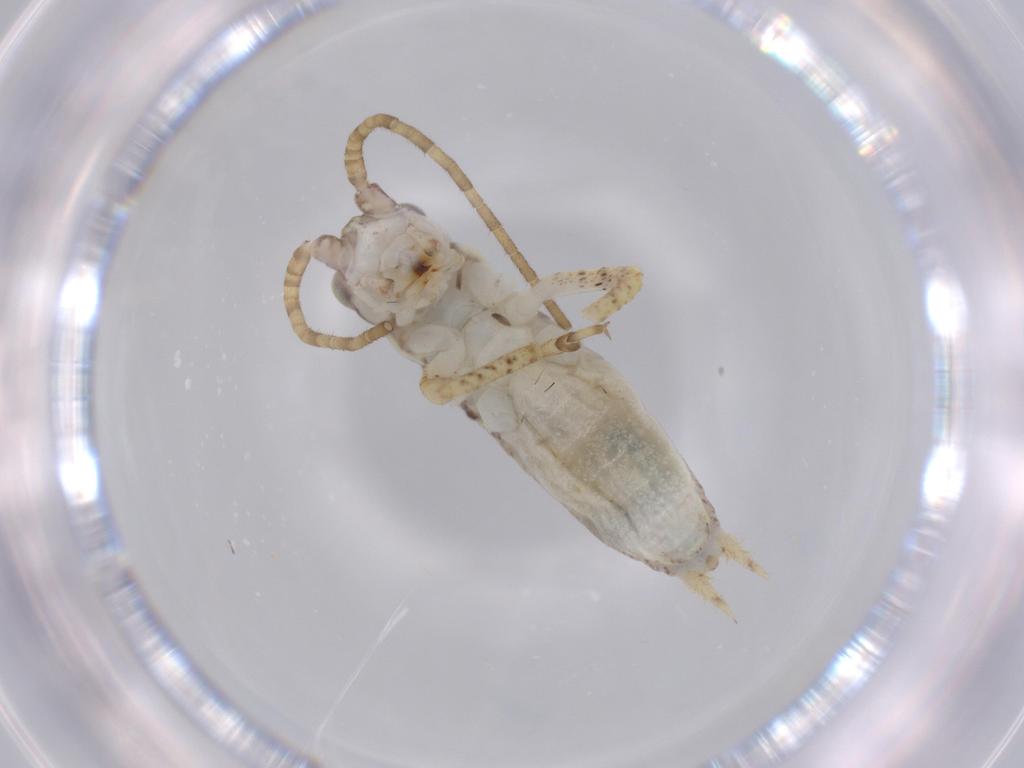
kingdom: Animalia
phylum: Arthropoda
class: Insecta
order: Orthoptera
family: Gryllidae
